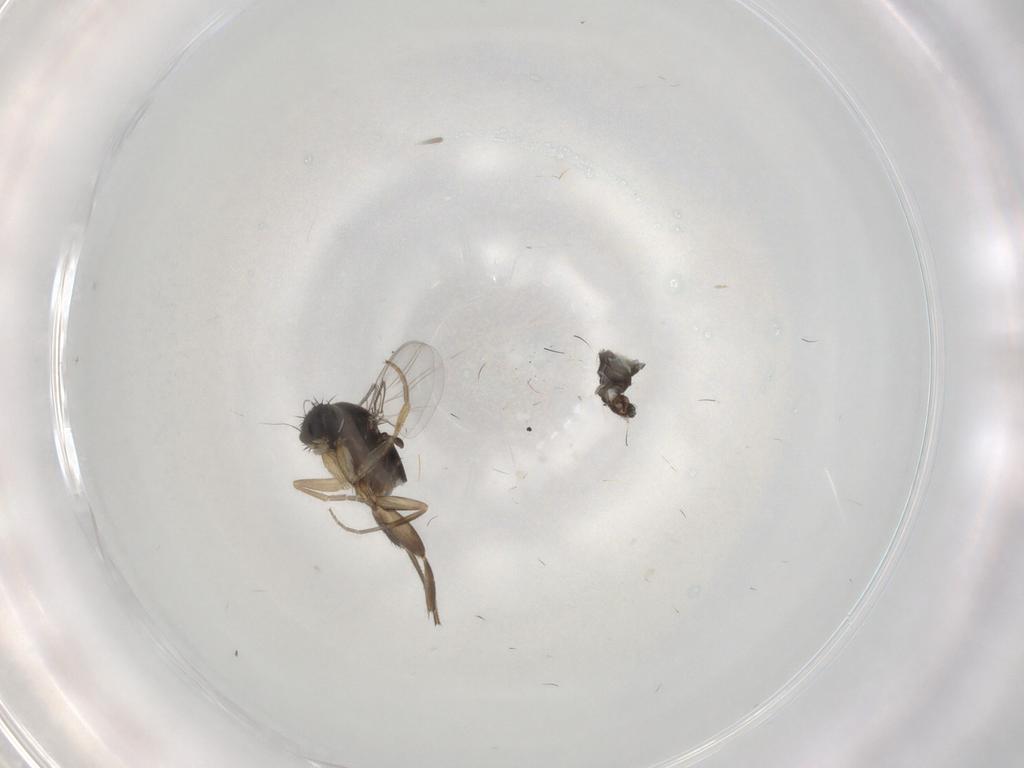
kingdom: Animalia
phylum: Arthropoda
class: Insecta
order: Diptera
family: Phoridae
